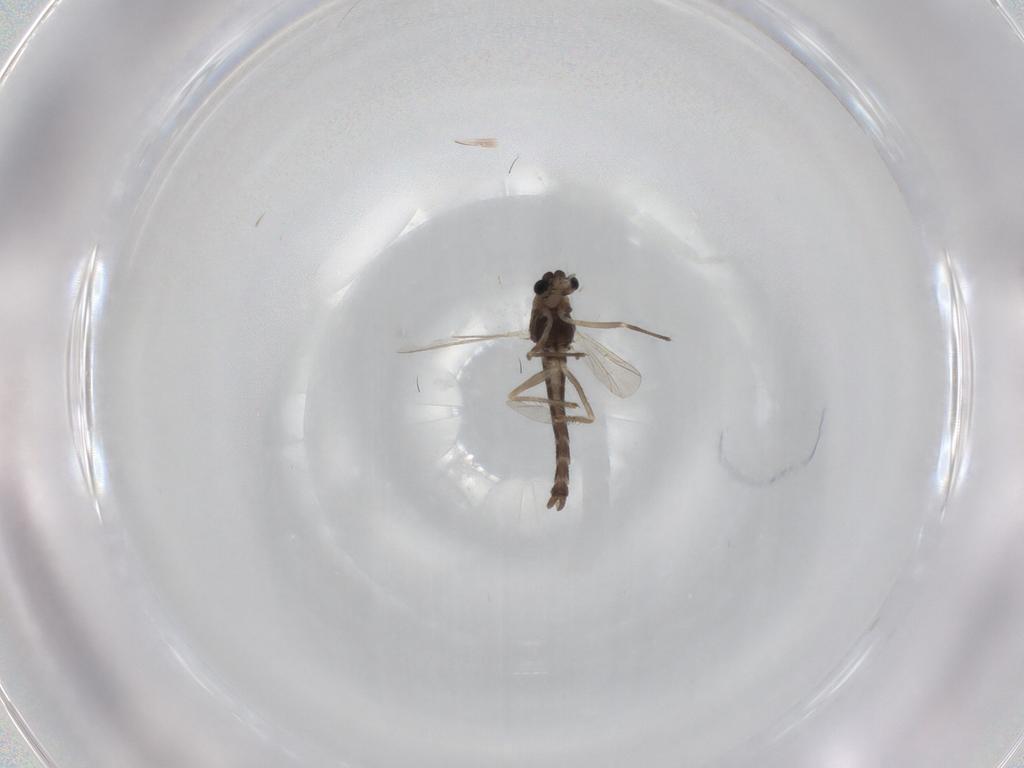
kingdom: Animalia
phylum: Arthropoda
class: Insecta
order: Diptera
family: Chironomidae
